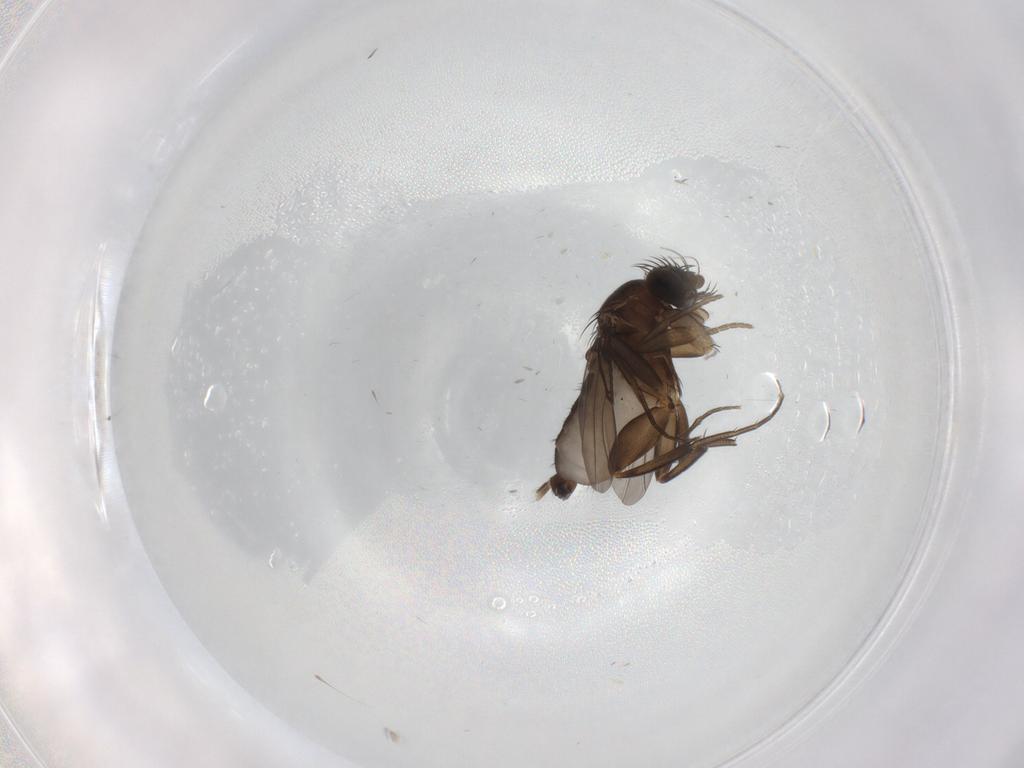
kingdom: Animalia
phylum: Arthropoda
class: Insecta
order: Diptera
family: Phoridae
